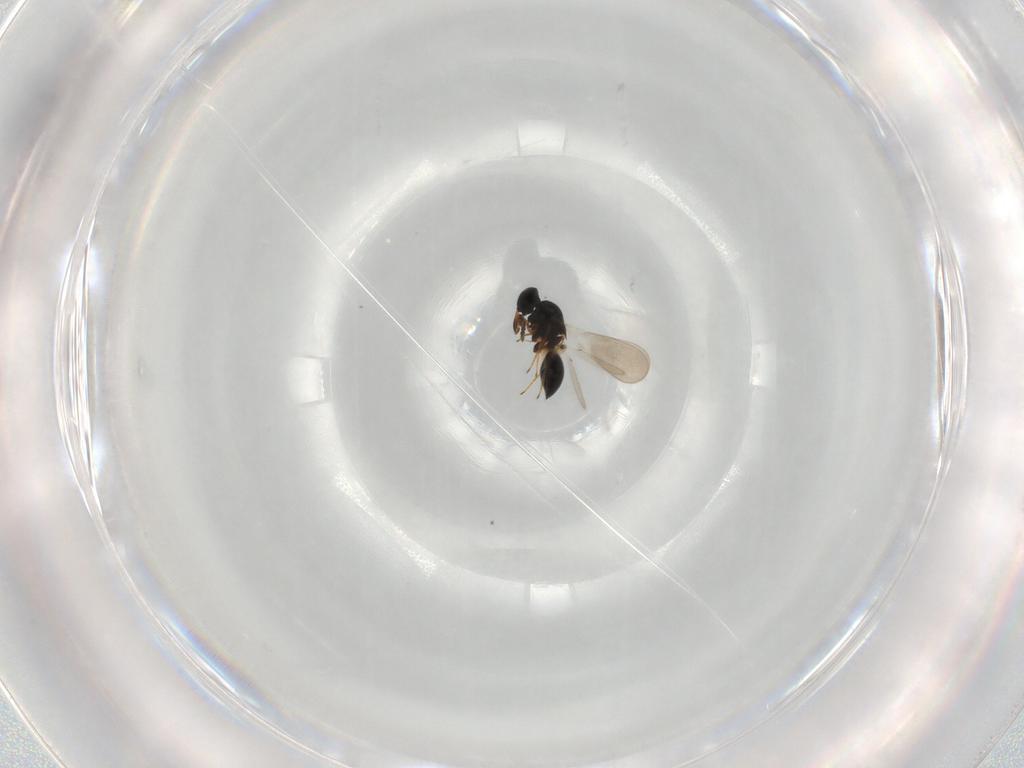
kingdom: Animalia
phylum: Arthropoda
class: Insecta
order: Hymenoptera
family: Platygastridae
